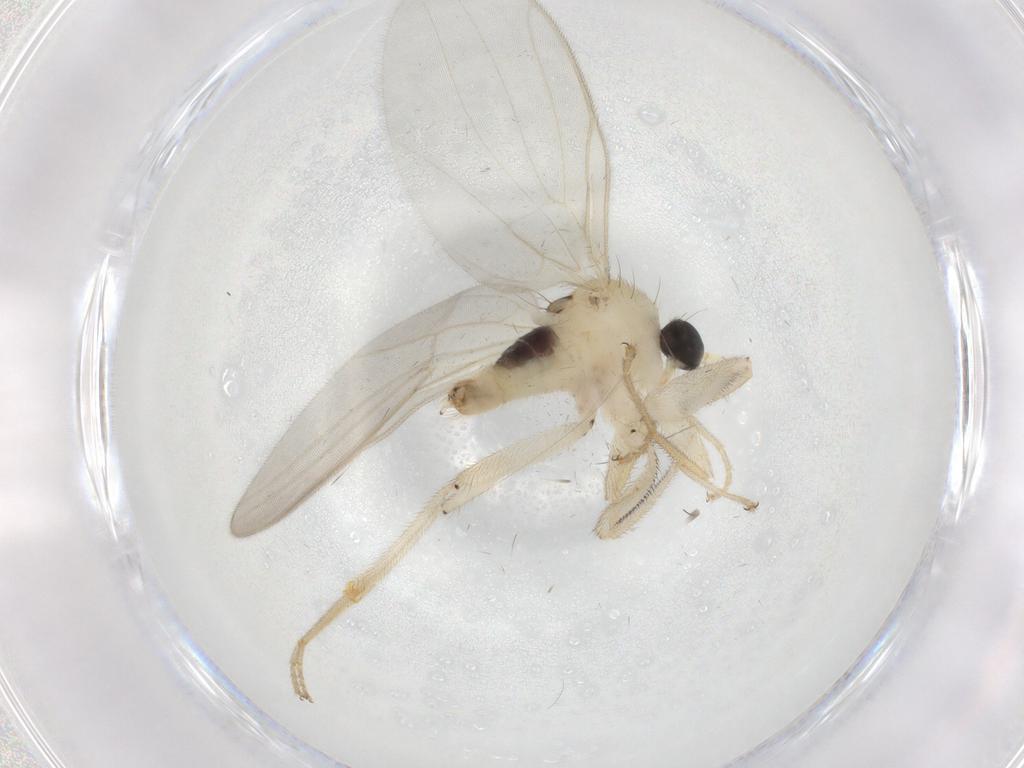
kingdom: Animalia
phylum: Arthropoda
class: Insecta
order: Diptera
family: Hybotidae
